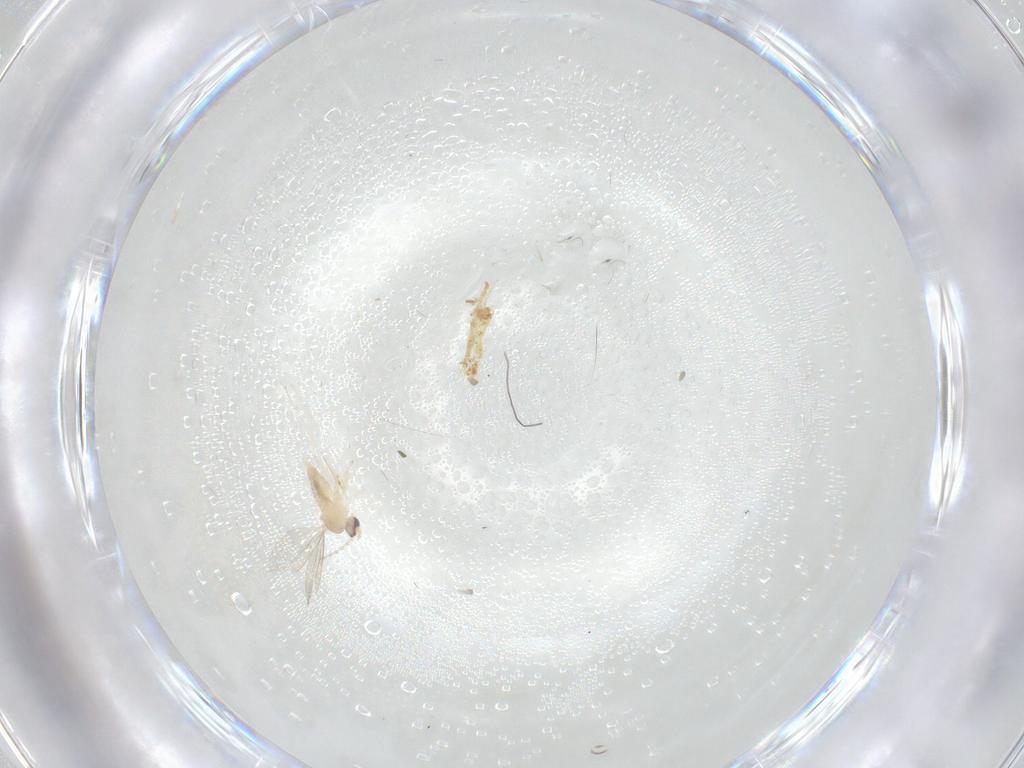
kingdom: Animalia
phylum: Arthropoda
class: Insecta
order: Diptera
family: Cecidomyiidae
